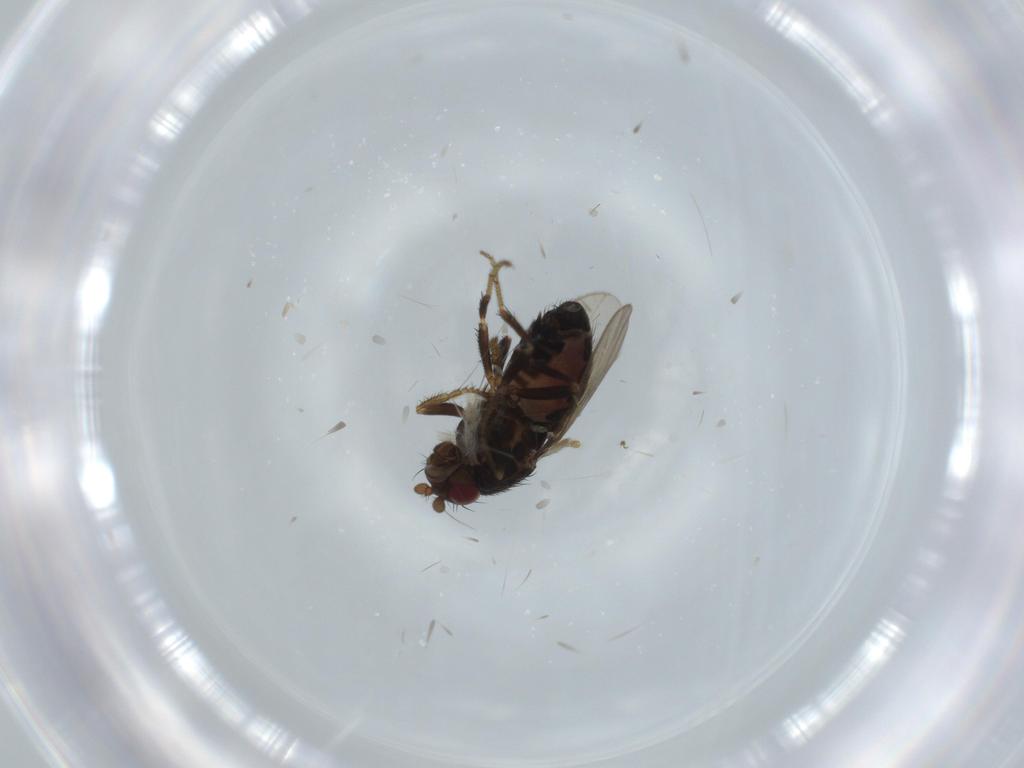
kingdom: Animalia
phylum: Arthropoda
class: Insecta
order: Diptera
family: Sphaeroceridae
